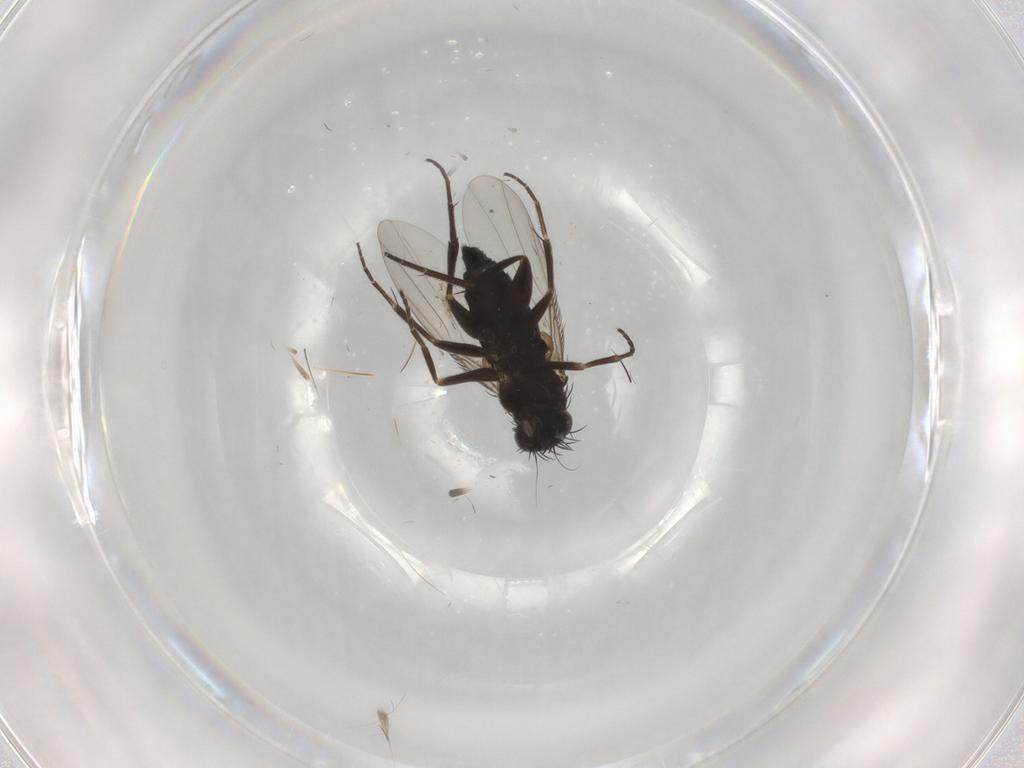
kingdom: Animalia
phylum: Arthropoda
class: Insecta
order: Diptera
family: Phoridae
